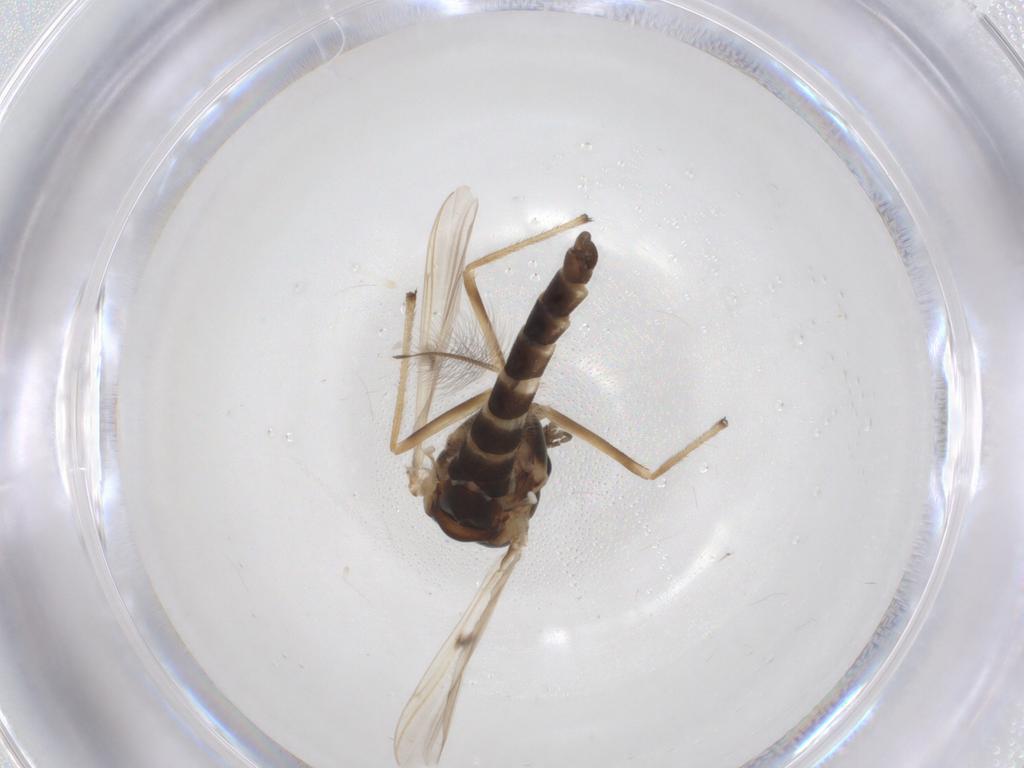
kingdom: Animalia
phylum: Arthropoda
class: Insecta
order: Diptera
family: Chironomidae
